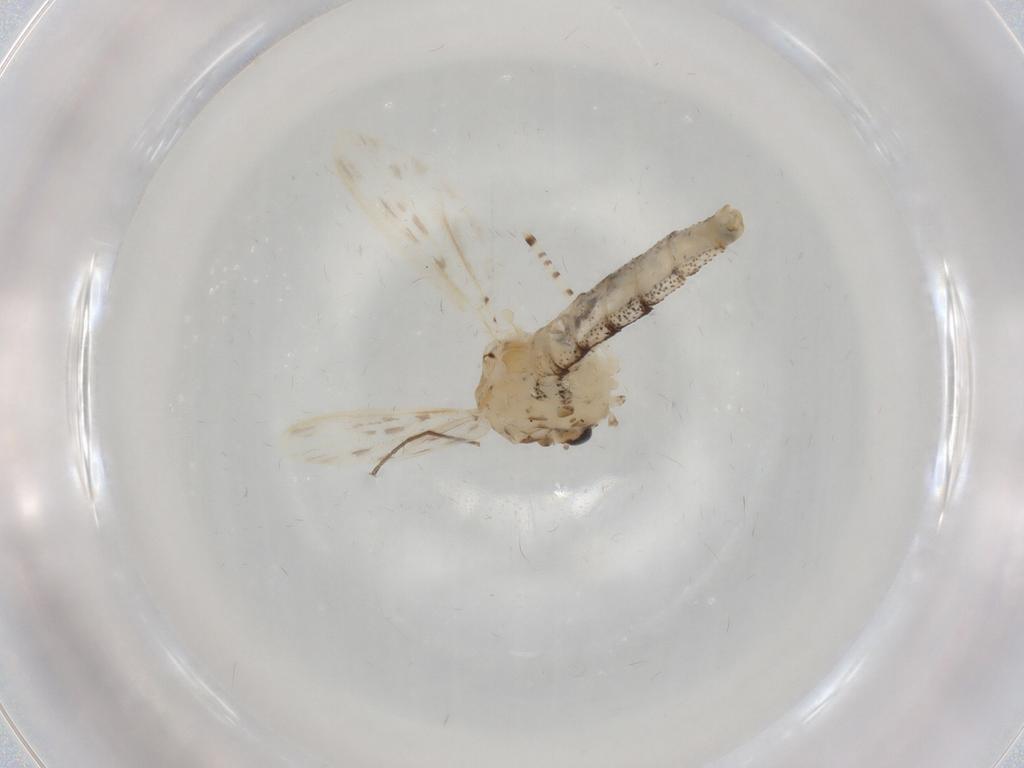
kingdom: Animalia
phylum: Arthropoda
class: Insecta
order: Diptera
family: Chaoboridae
